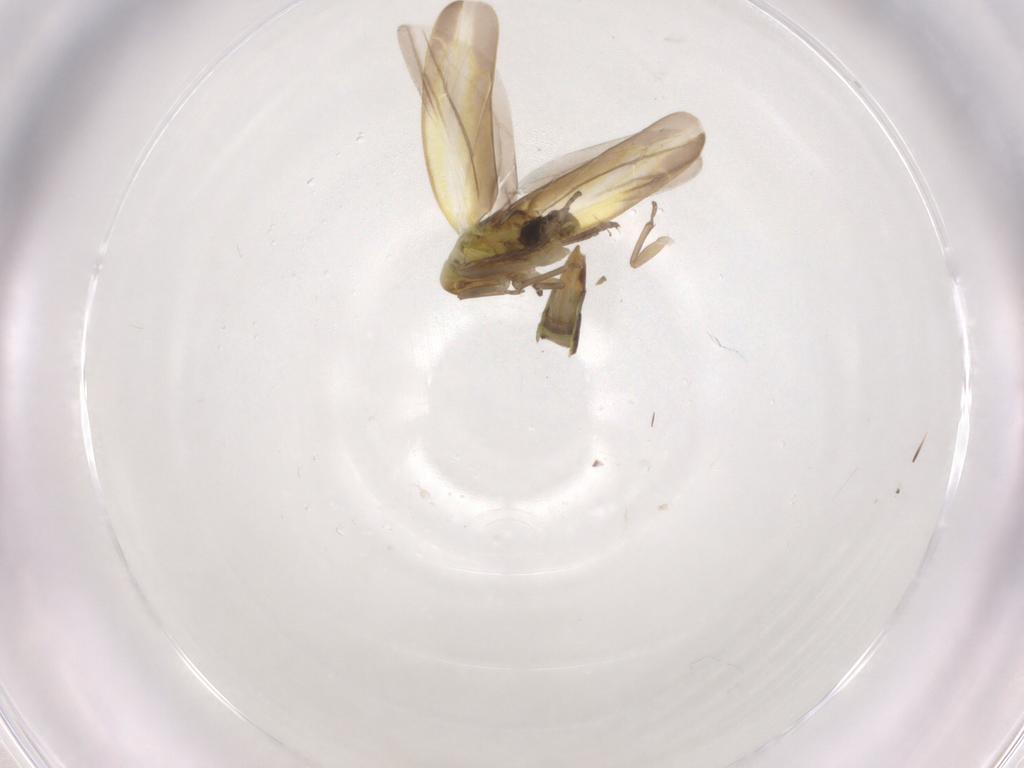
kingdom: Animalia
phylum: Arthropoda
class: Insecta
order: Hemiptera
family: Cicadellidae
